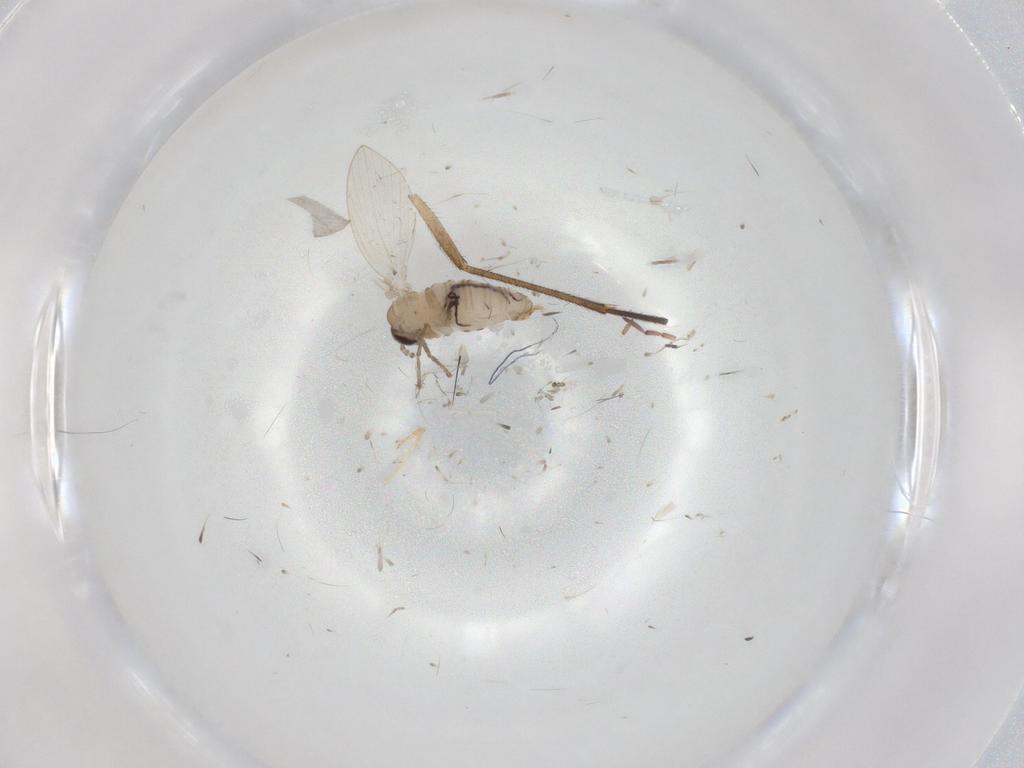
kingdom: Animalia
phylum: Arthropoda
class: Insecta
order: Diptera
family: Psychodidae
